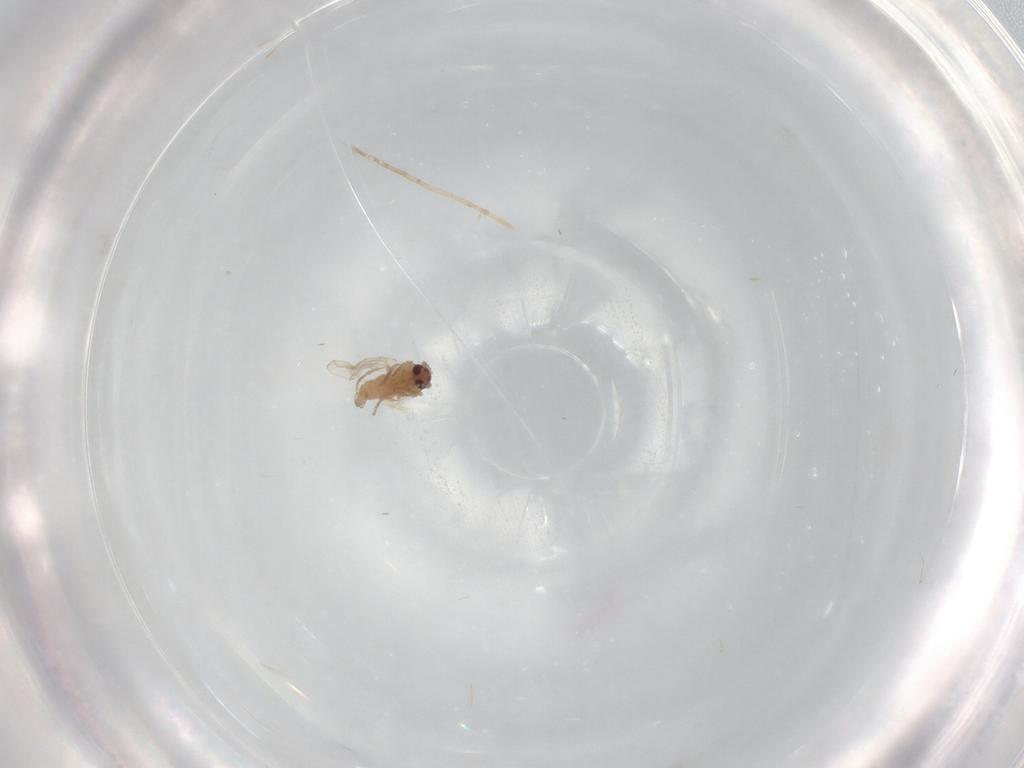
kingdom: Animalia
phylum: Arthropoda
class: Insecta
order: Diptera
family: Psychodidae
